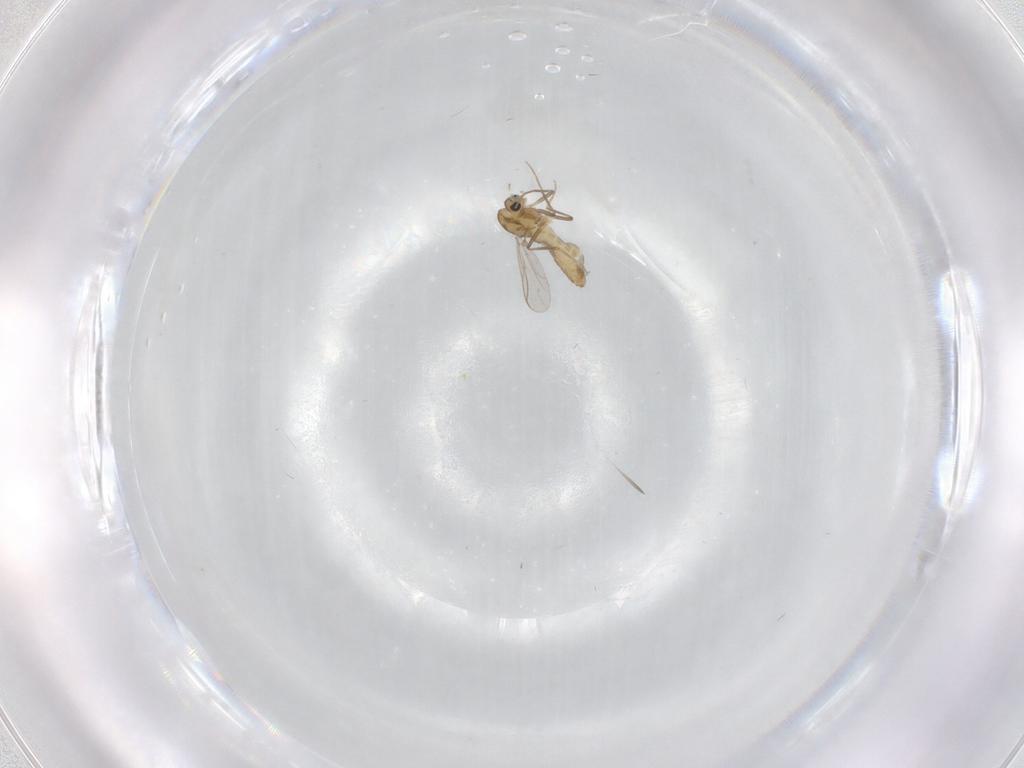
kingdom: Animalia
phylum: Arthropoda
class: Insecta
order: Diptera
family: Chironomidae
